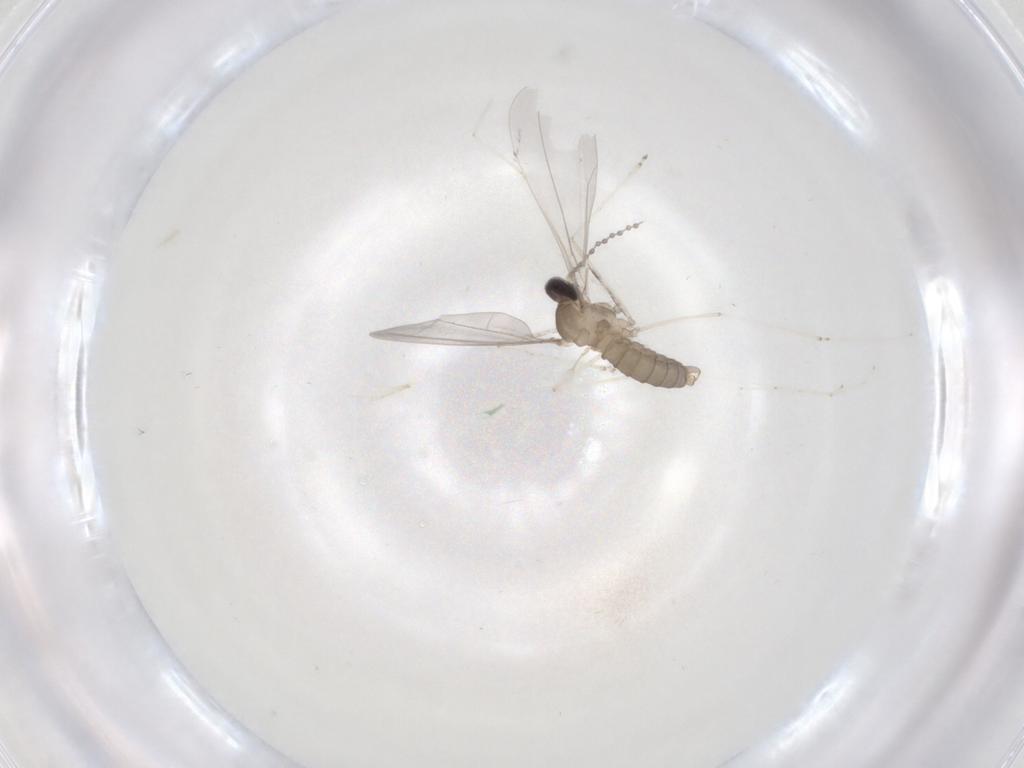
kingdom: Animalia
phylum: Arthropoda
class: Insecta
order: Diptera
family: Cecidomyiidae
